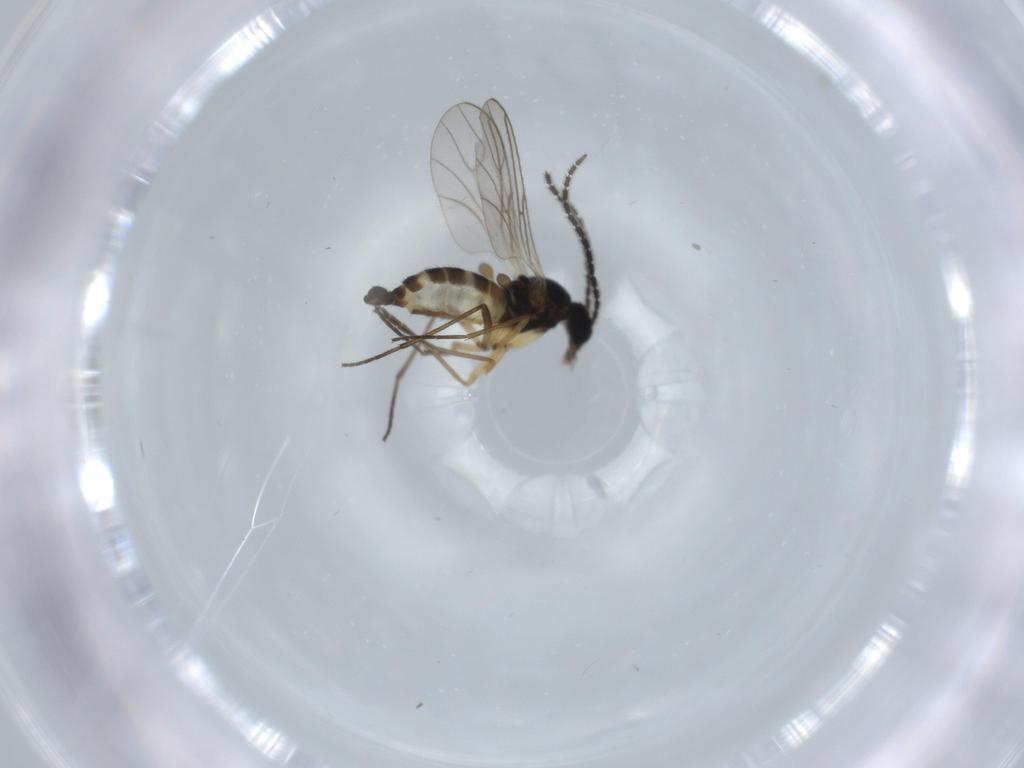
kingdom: Animalia
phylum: Arthropoda
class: Insecta
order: Diptera
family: Sciaridae
